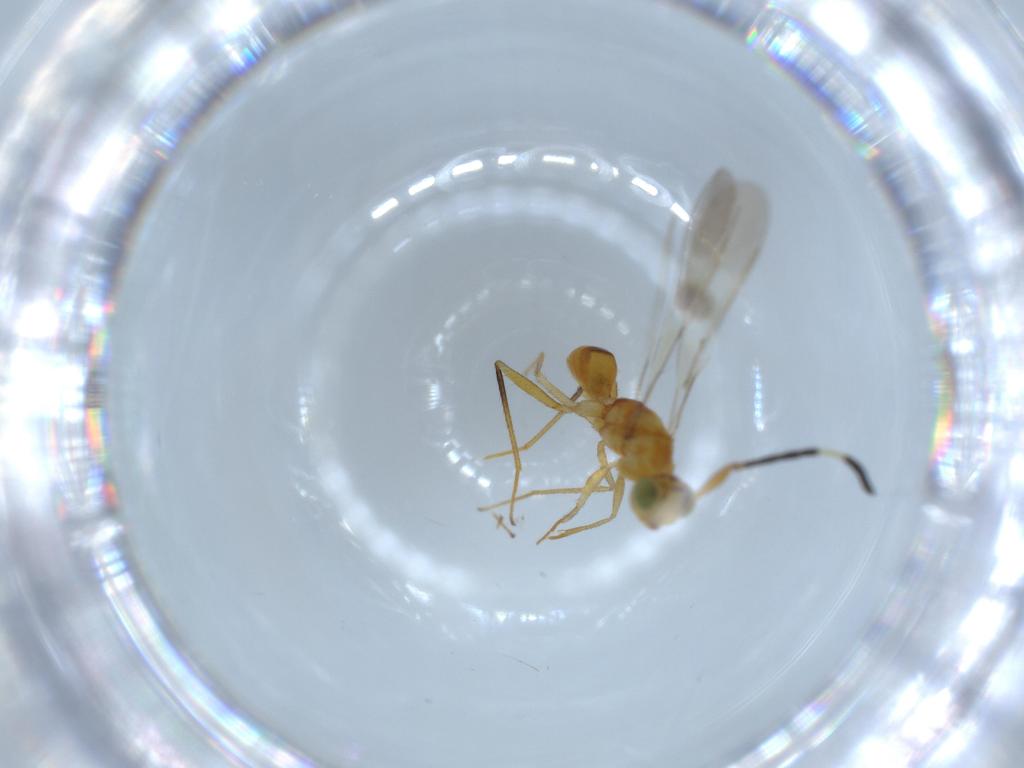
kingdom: Animalia
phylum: Arthropoda
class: Insecta
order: Hymenoptera
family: Mymaridae
